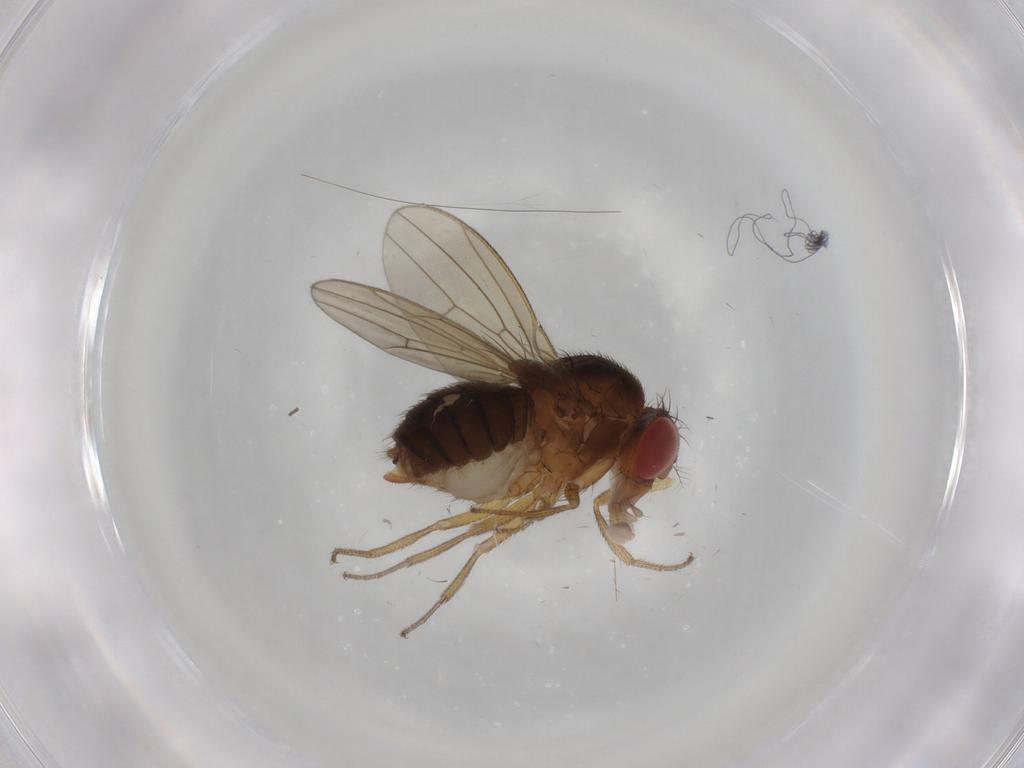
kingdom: Animalia
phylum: Arthropoda
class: Insecta
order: Diptera
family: Drosophilidae
